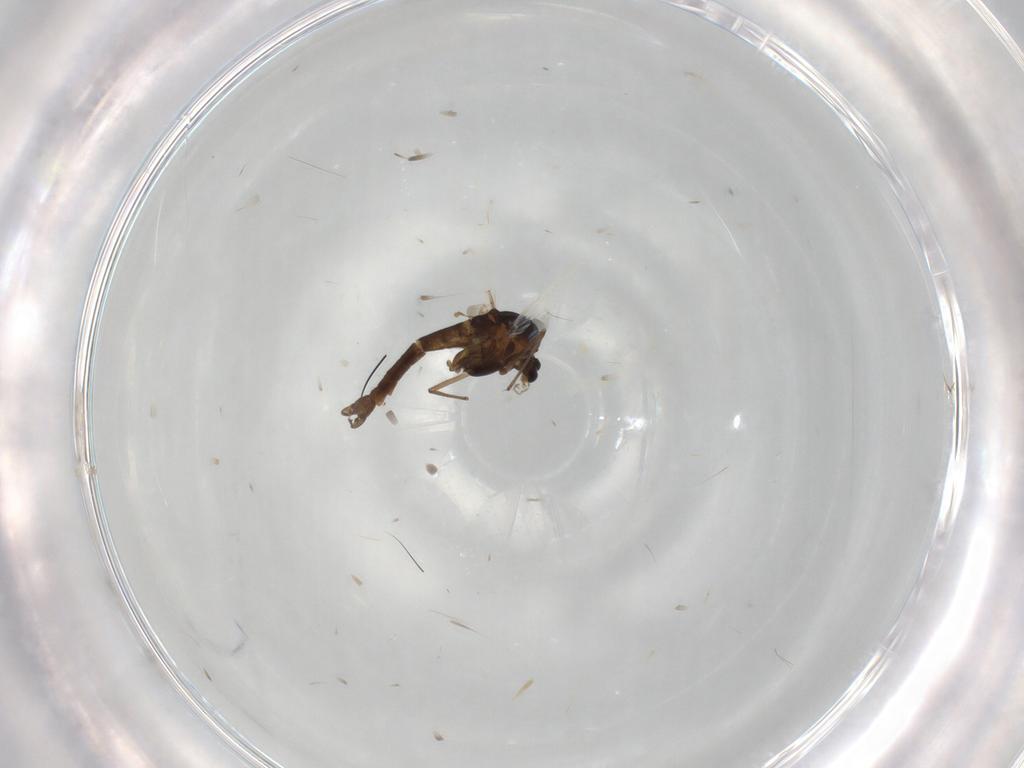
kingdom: Animalia
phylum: Arthropoda
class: Insecta
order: Diptera
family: Chironomidae
